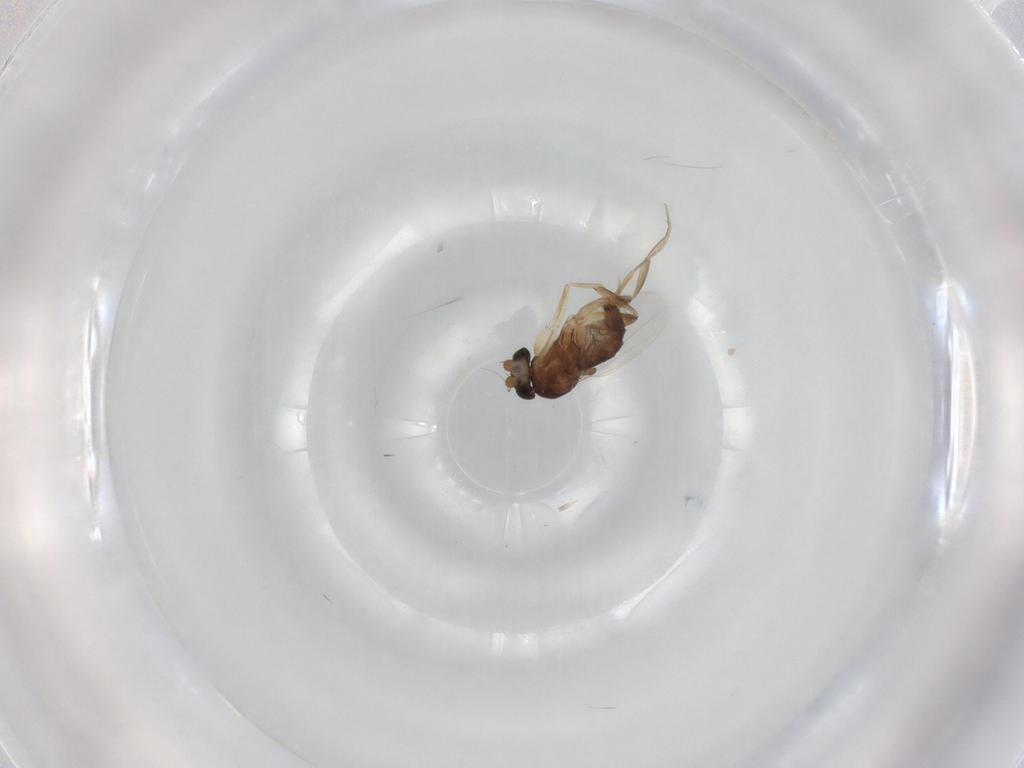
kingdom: Animalia
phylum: Arthropoda
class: Insecta
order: Diptera
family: Phoridae
